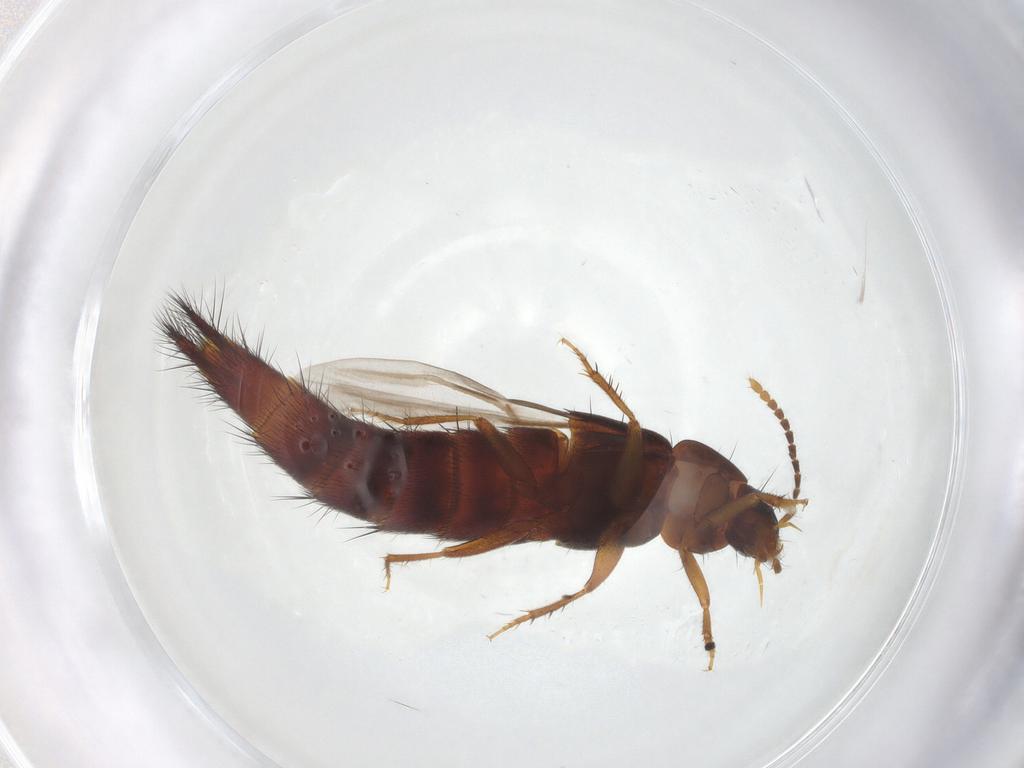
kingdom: Animalia
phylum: Arthropoda
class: Insecta
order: Coleoptera
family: Staphylinidae
